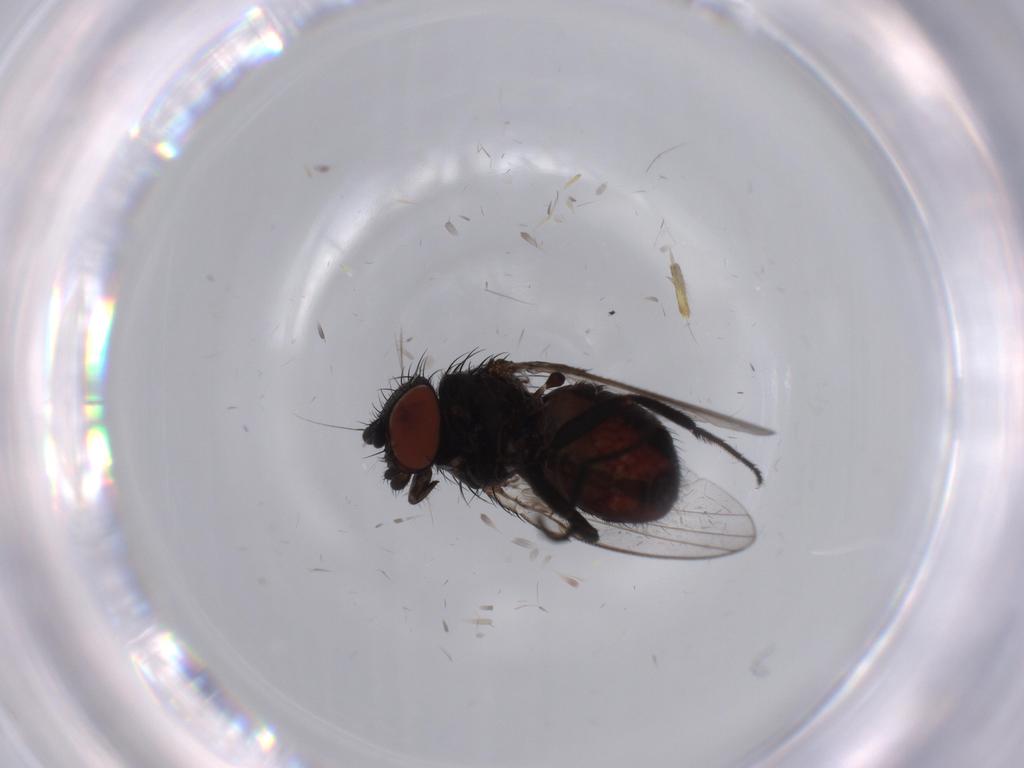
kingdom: Animalia
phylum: Arthropoda
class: Insecta
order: Diptera
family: Milichiidae
